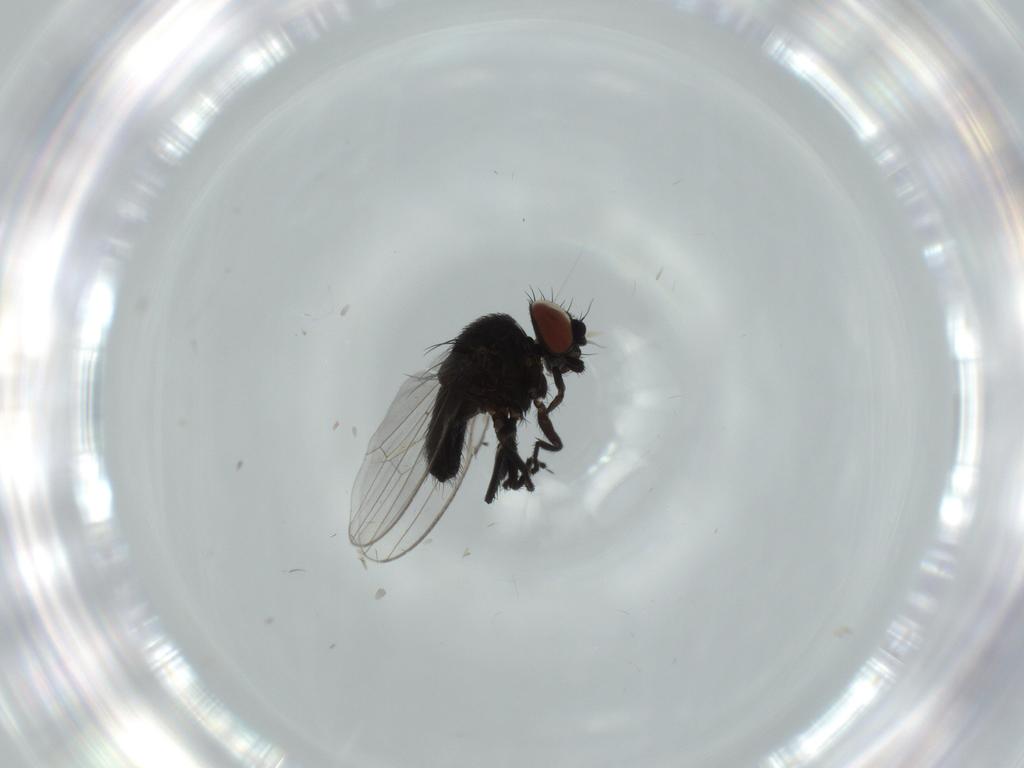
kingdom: Animalia
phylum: Arthropoda
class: Insecta
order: Diptera
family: Milichiidae
